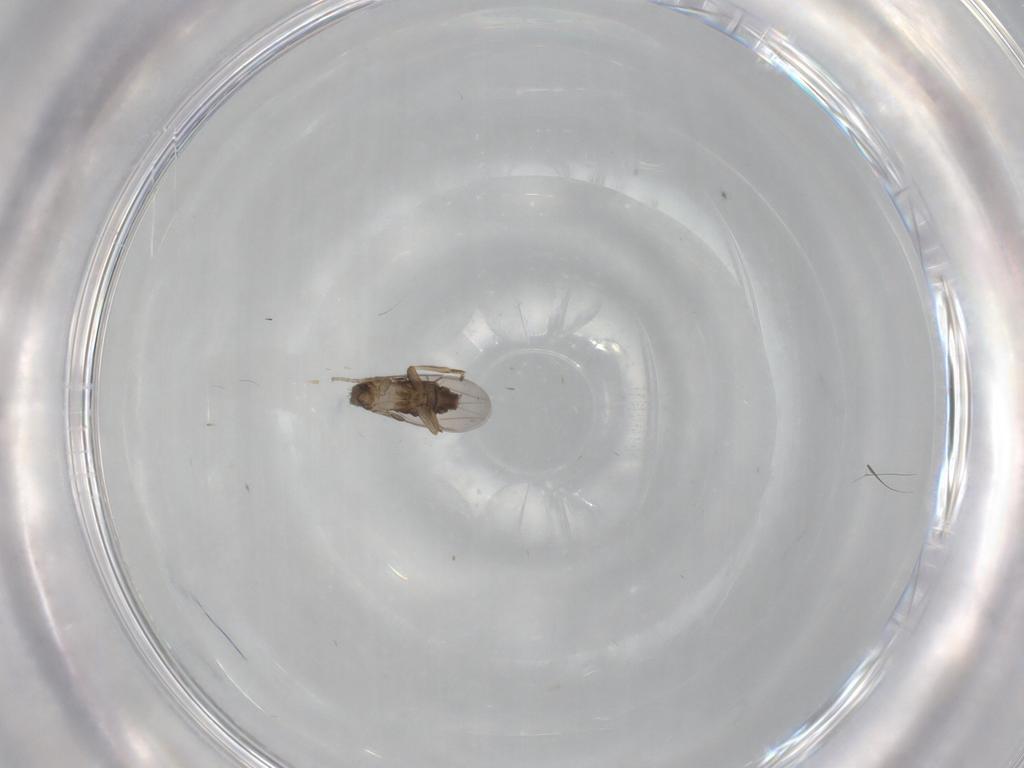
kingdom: Animalia
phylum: Arthropoda
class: Insecta
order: Diptera
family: Phoridae
